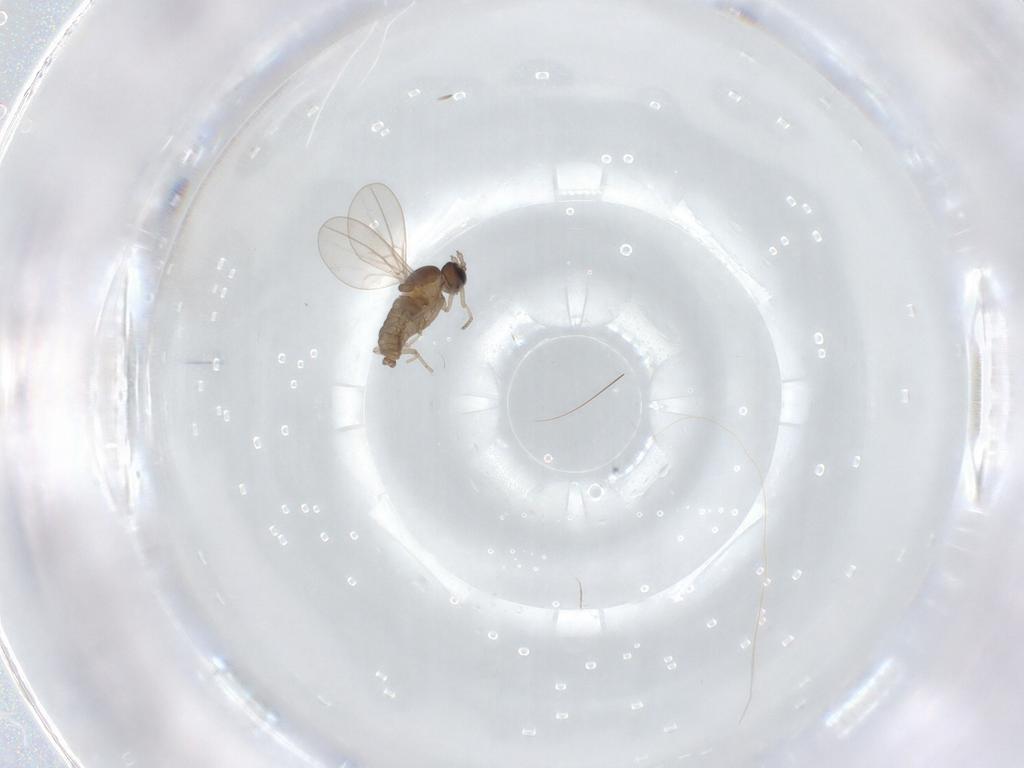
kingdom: Animalia
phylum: Arthropoda
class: Insecta
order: Diptera
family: Cecidomyiidae
